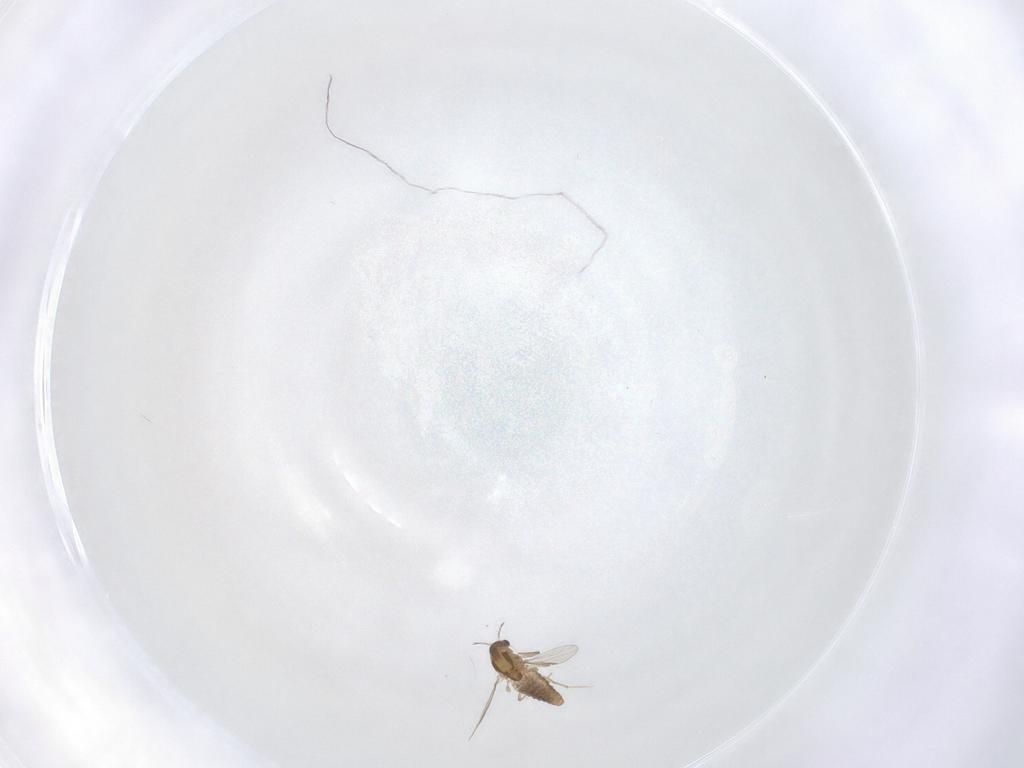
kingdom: Animalia
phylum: Arthropoda
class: Insecta
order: Diptera
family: Chironomidae
